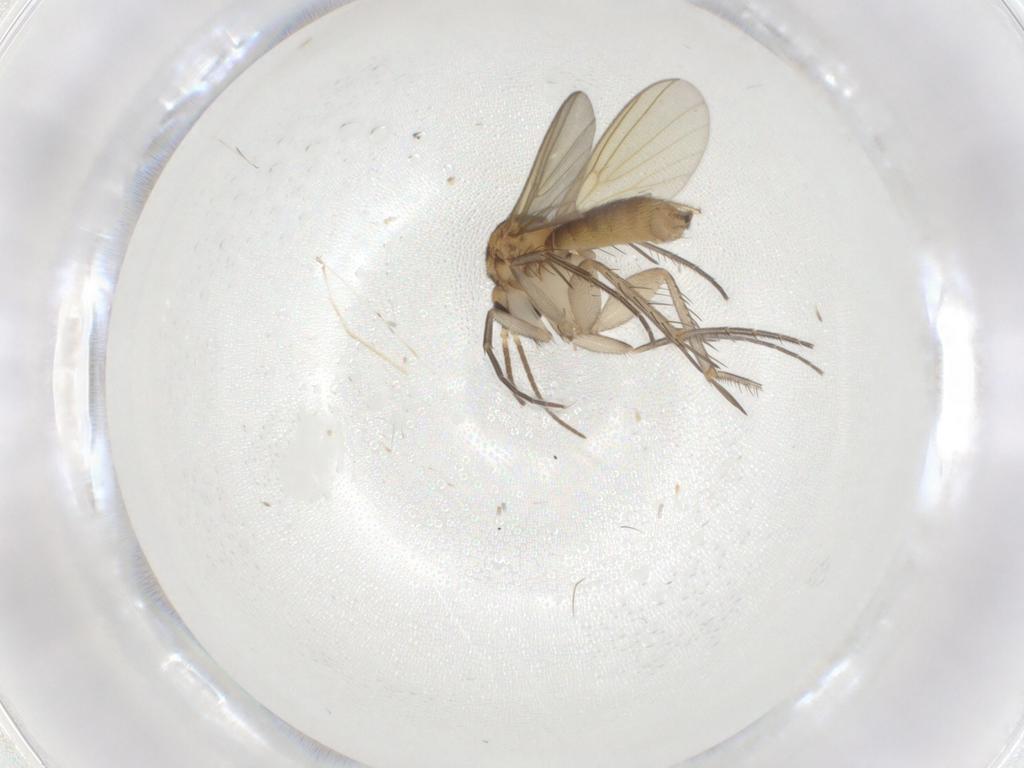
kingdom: Animalia
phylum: Arthropoda
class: Insecta
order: Diptera
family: Mycetophilidae
